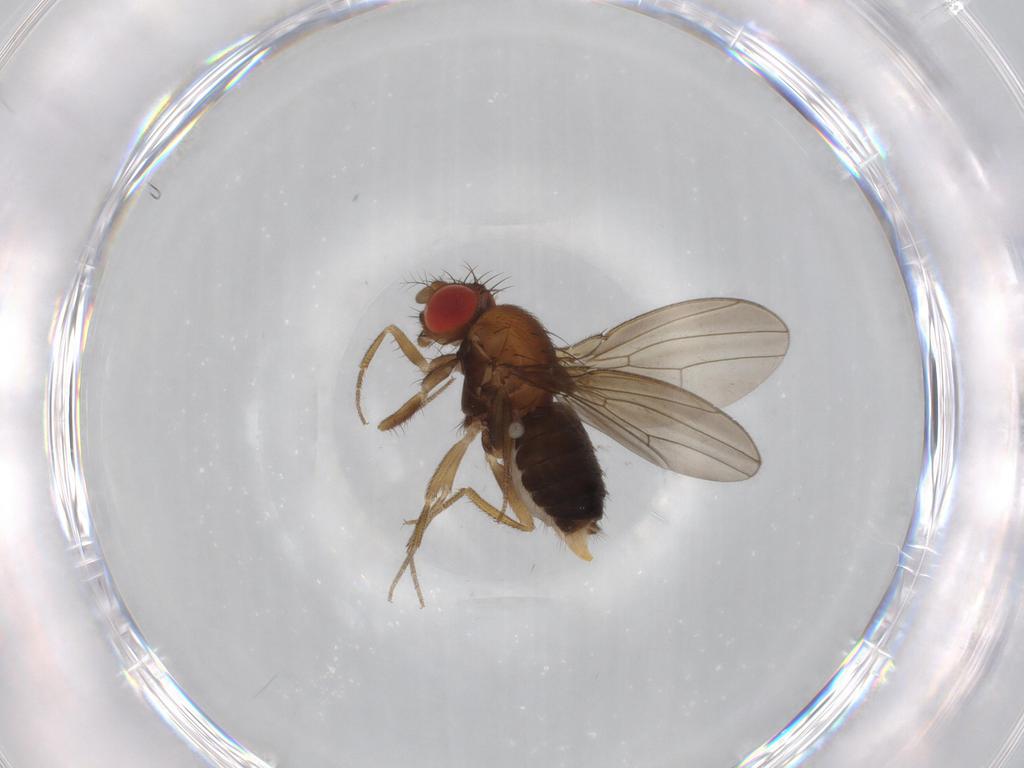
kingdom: Animalia
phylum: Arthropoda
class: Insecta
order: Diptera
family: Drosophilidae
